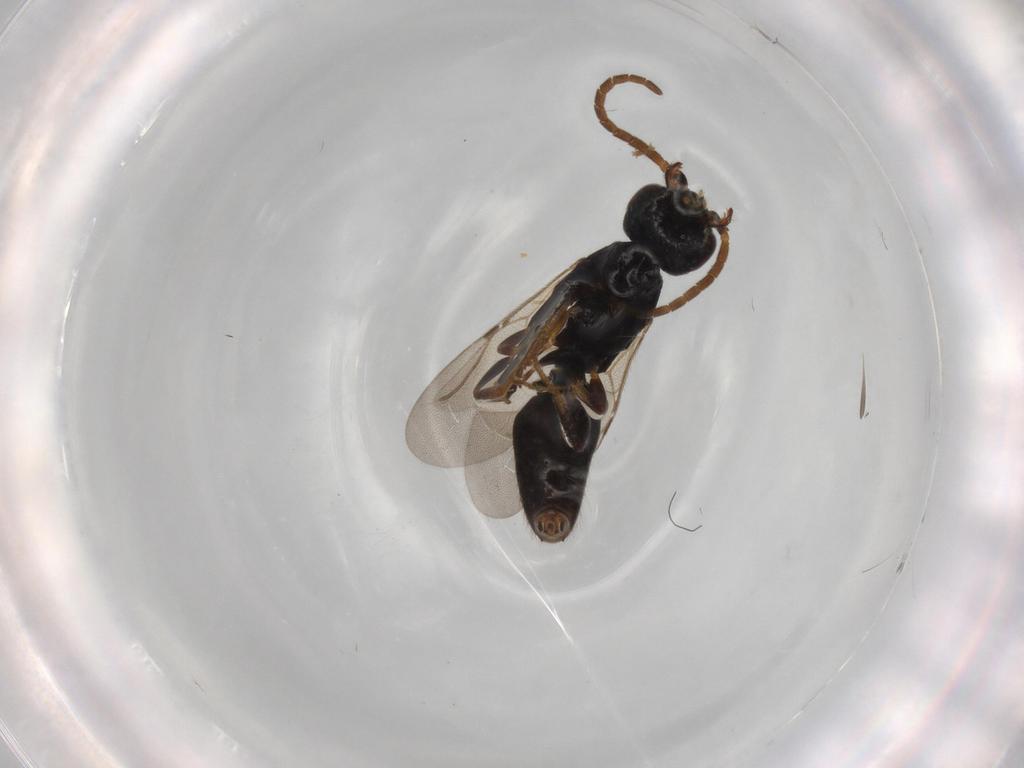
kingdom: Animalia
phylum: Arthropoda
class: Insecta
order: Hymenoptera
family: Bethylidae
